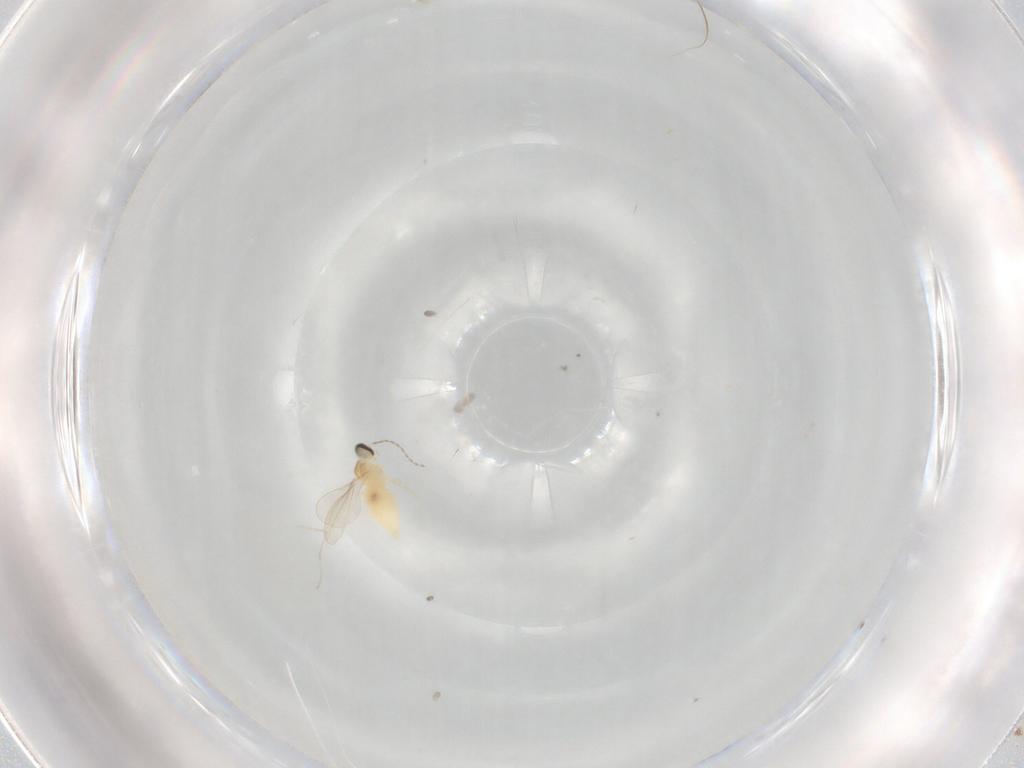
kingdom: Animalia
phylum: Arthropoda
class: Insecta
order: Diptera
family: Cecidomyiidae
